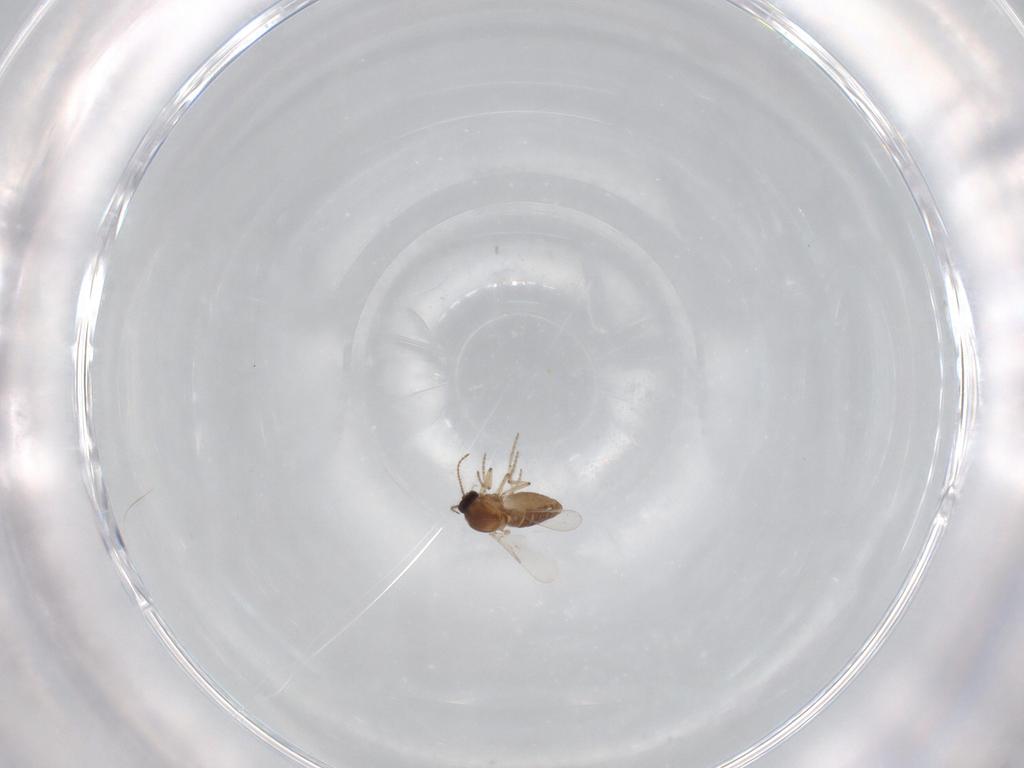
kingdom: Animalia
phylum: Arthropoda
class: Insecta
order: Diptera
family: Ceratopogonidae
